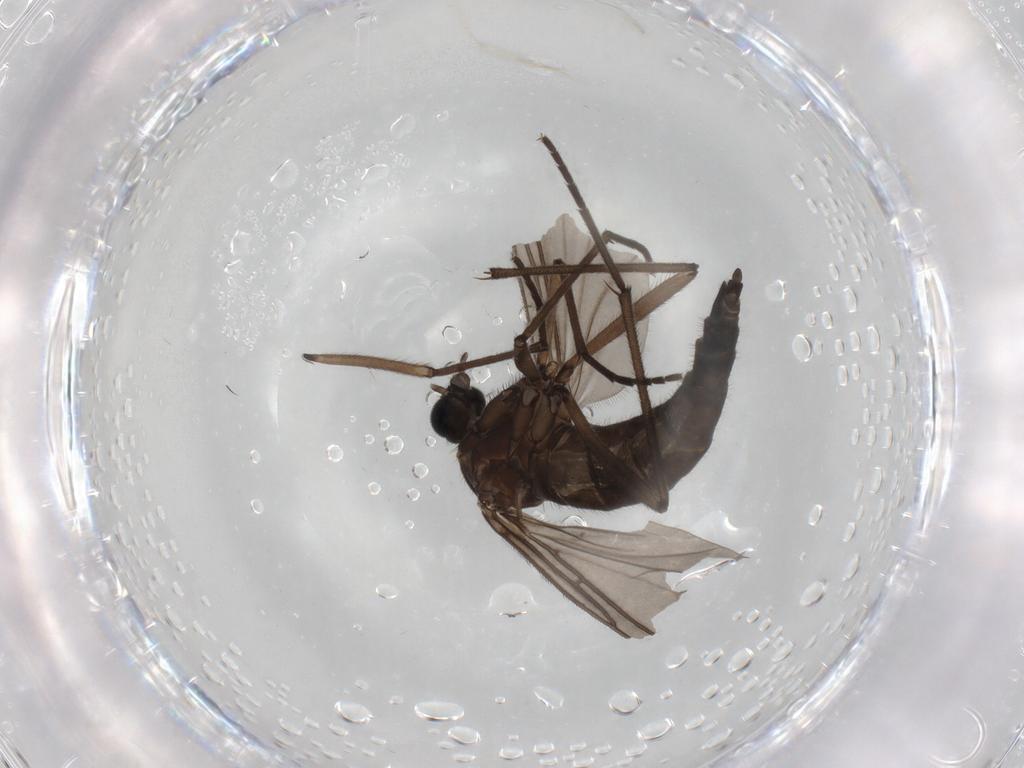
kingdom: Animalia
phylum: Arthropoda
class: Insecta
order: Diptera
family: Sciaridae
